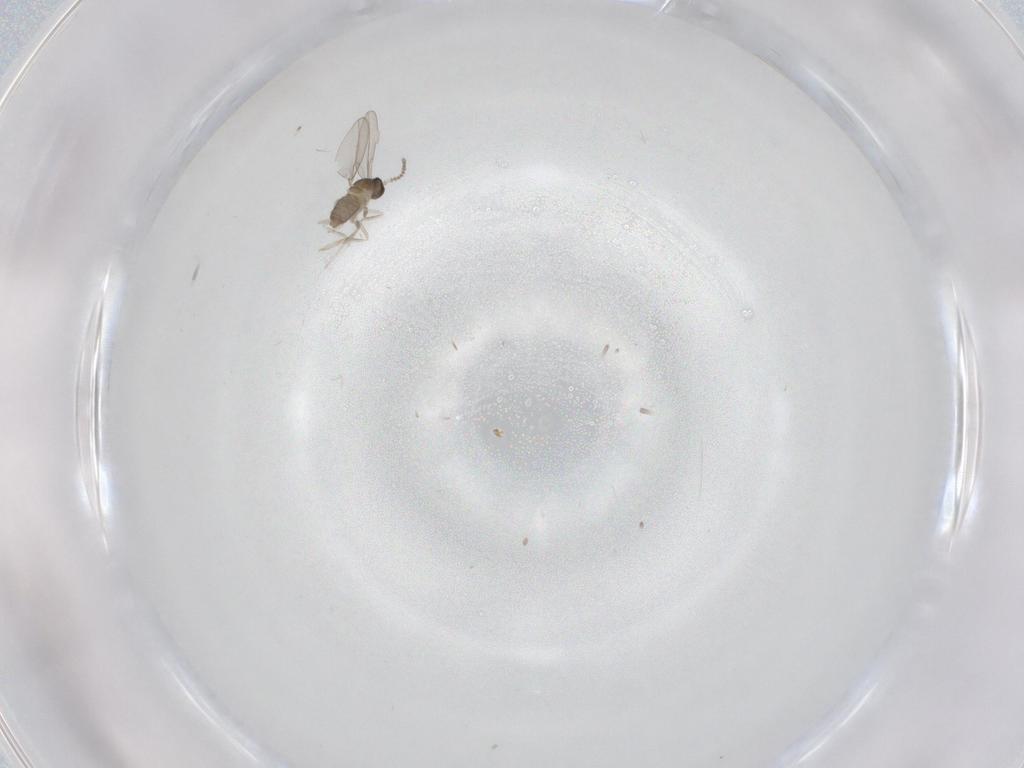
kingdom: Animalia
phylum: Arthropoda
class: Insecta
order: Diptera
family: Cecidomyiidae
